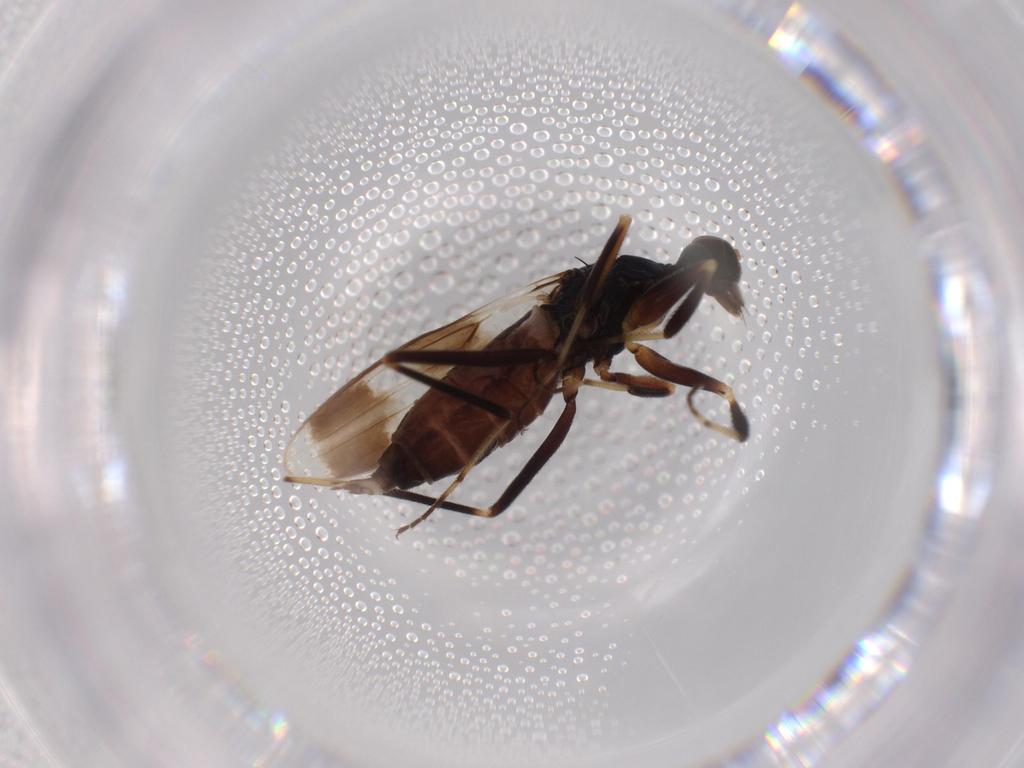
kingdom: Animalia
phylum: Arthropoda
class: Insecta
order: Diptera
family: Hybotidae
